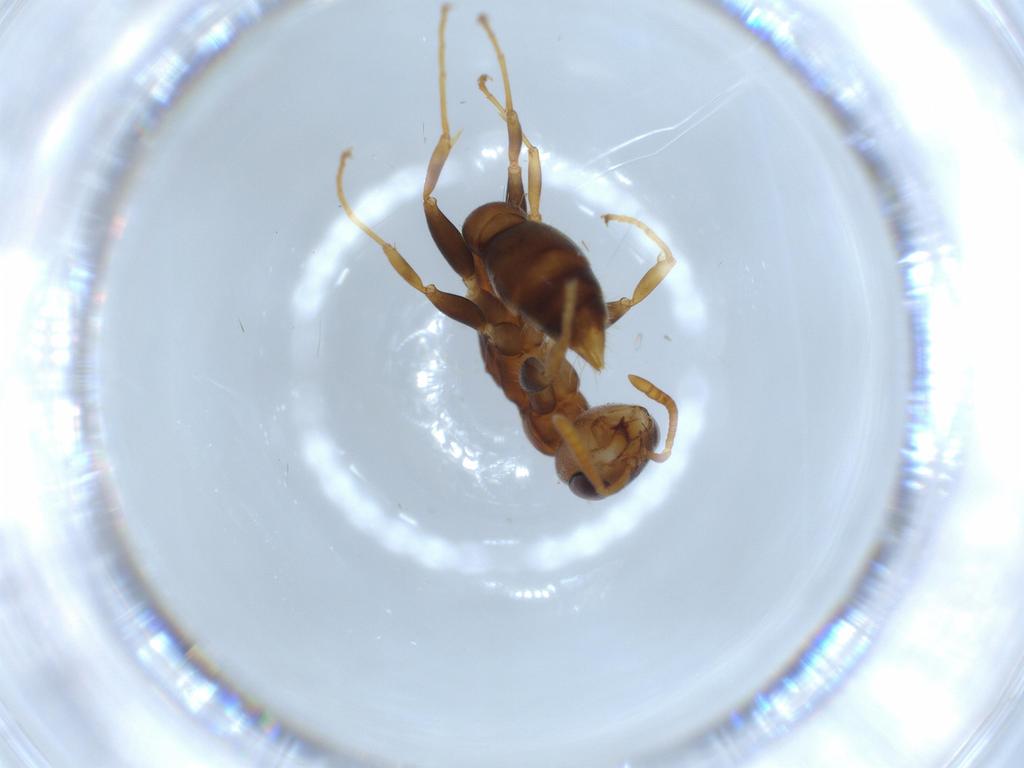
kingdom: Animalia
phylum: Arthropoda
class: Insecta
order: Hymenoptera
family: Formicidae
